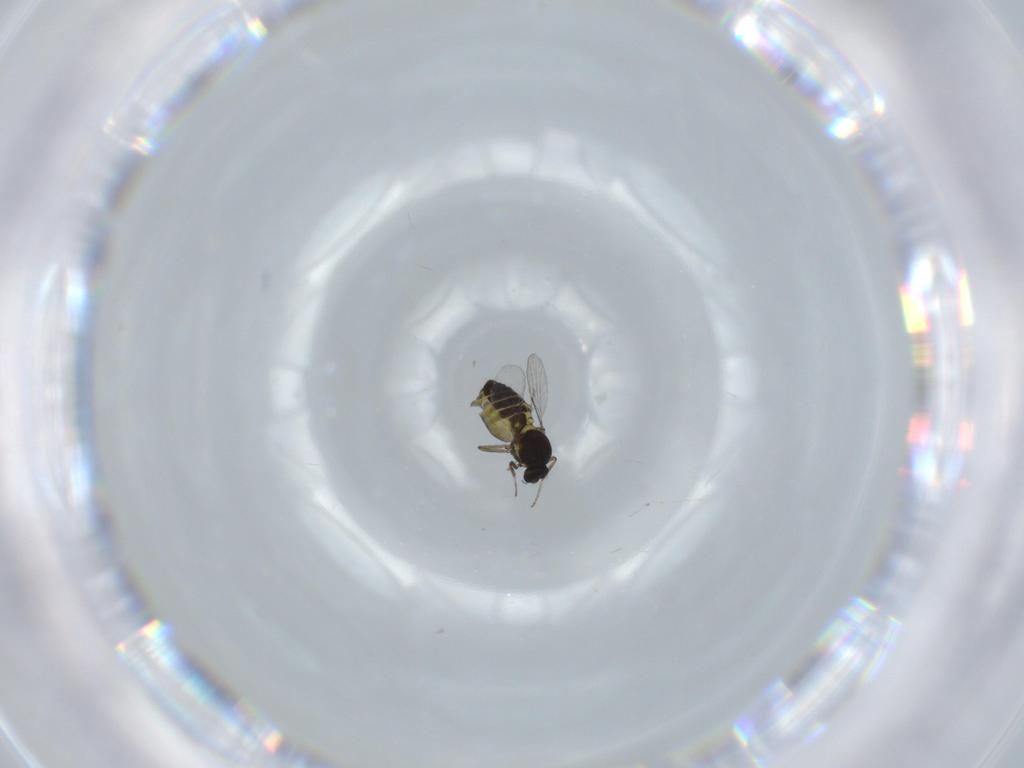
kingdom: Animalia
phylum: Arthropoda
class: Insecta
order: Diptera
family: Ceratopogonidae
